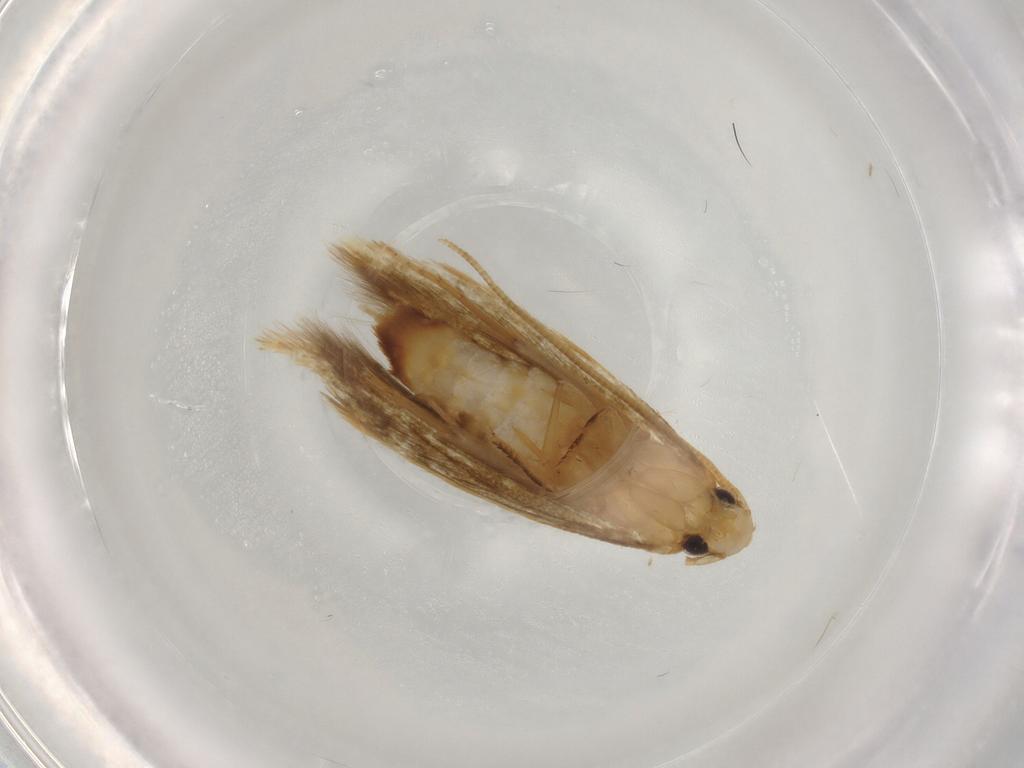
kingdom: Animalia
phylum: Arthropoda
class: Insecta
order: Lepidoptera
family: Tineidae
